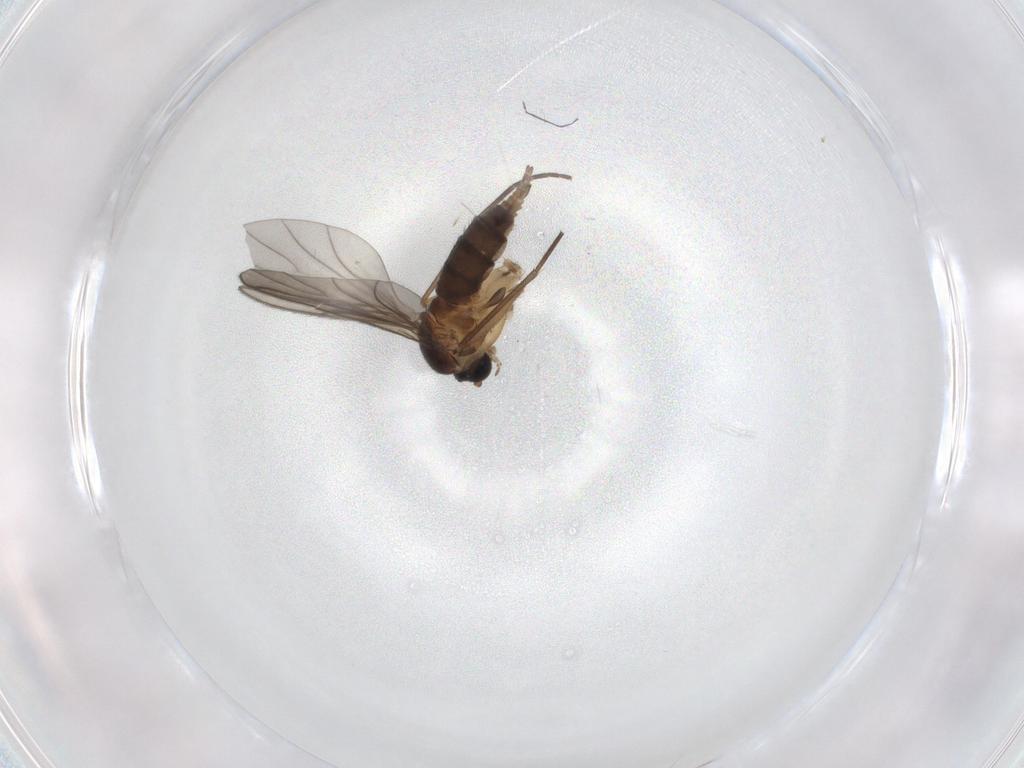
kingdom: Animalia
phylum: Arthropoda
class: Insecta
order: Diptera
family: Sciaridae
